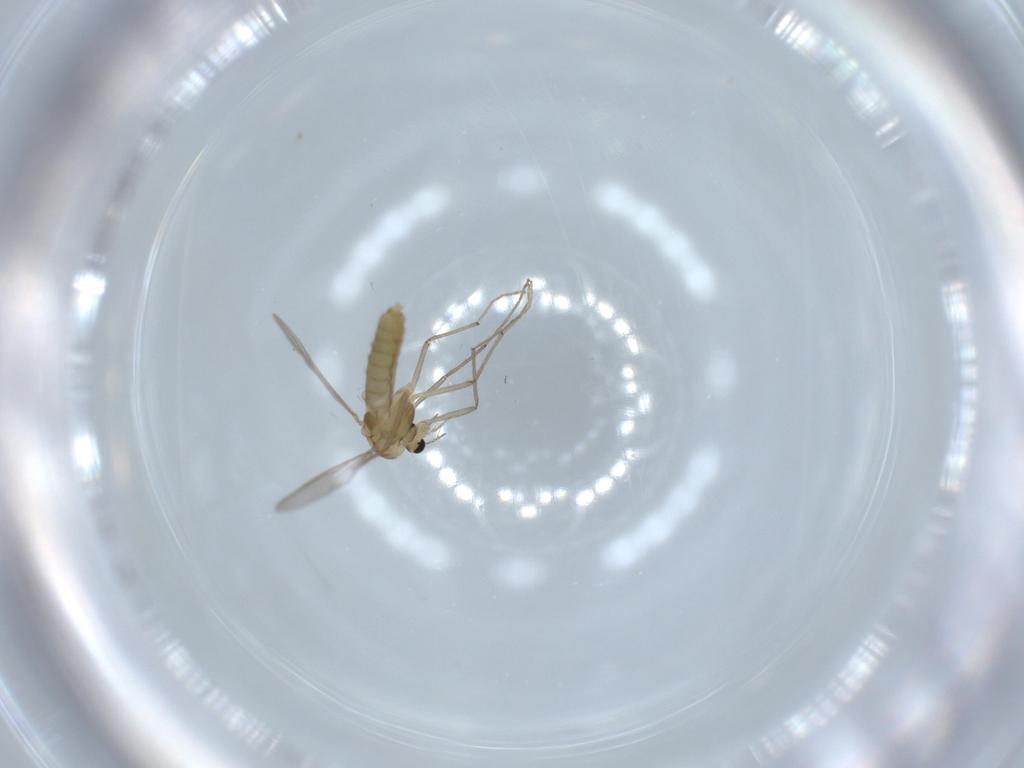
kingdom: Animalia
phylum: Arthropoda
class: Insecta
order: Diptera
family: Chironomidae
